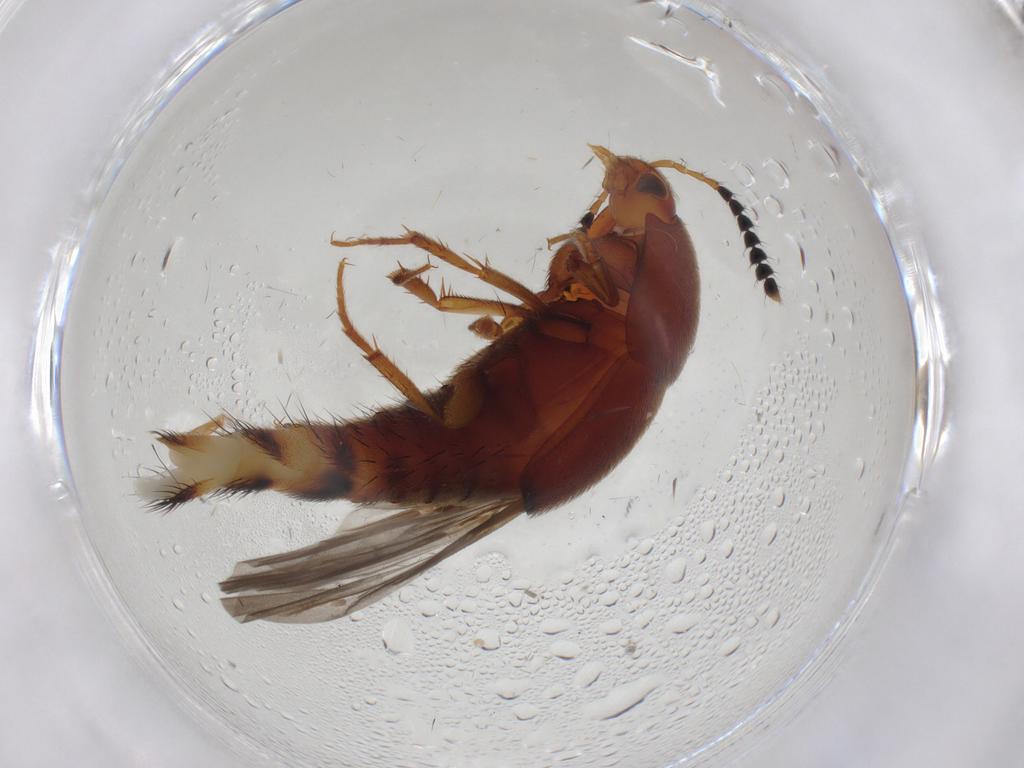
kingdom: Animalia
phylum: Arthropoda
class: Insecta
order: Coleoptera
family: Staphylinidae
